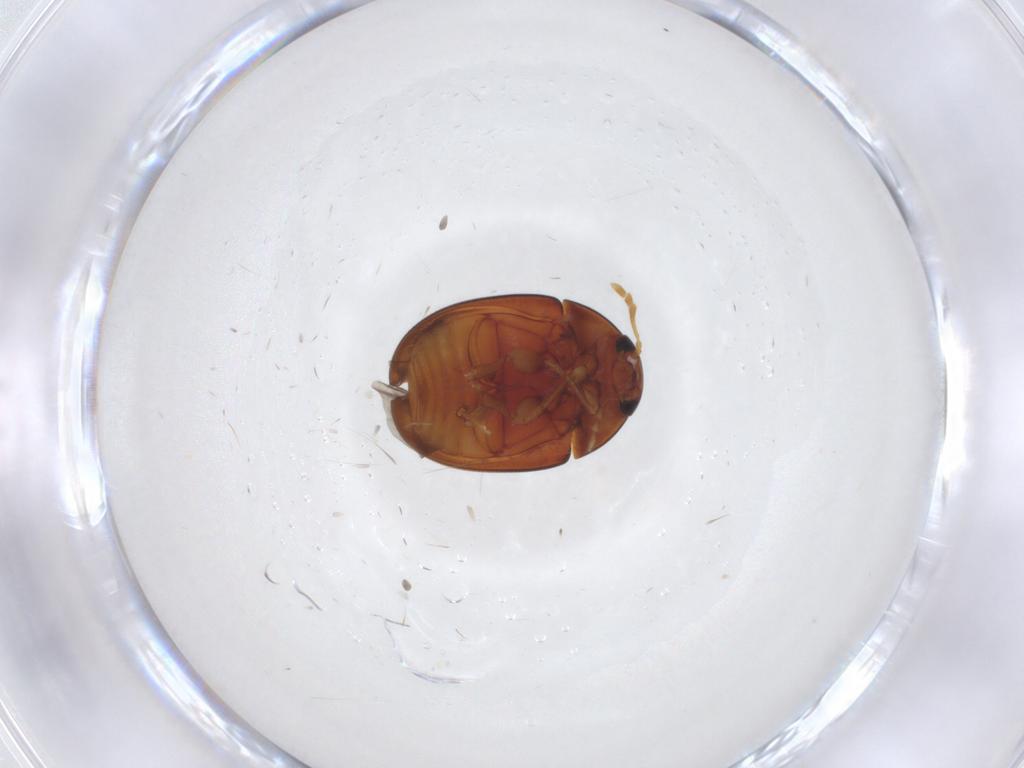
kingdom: Animalia
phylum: Arthropoda
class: Insecta
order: Coleoptera
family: Phalacridae
